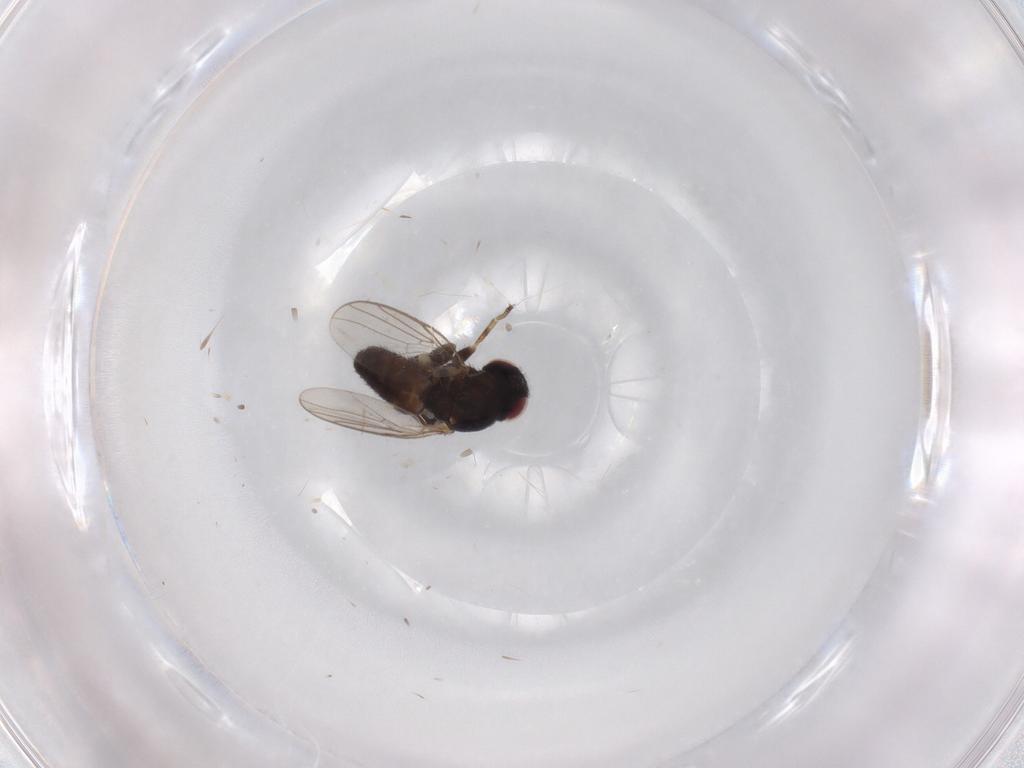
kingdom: Animalia
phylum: Arthropoda
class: Insecta
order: Diptera
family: Chloropidae
